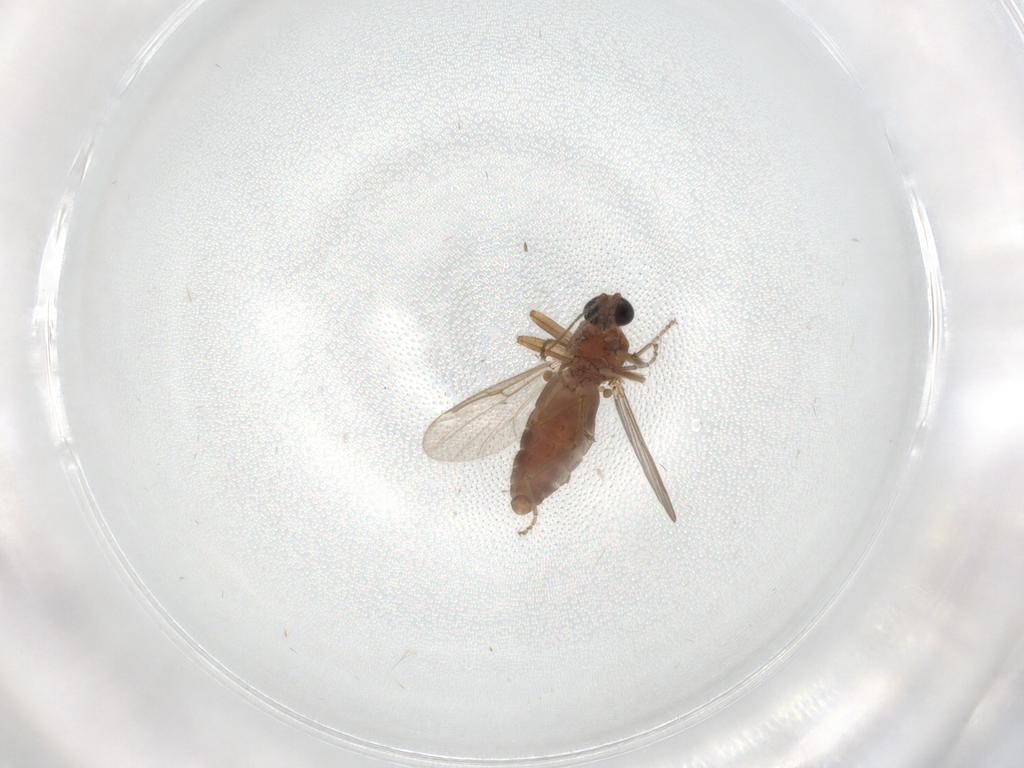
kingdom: Animalia
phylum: Arthropoda
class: Insecta
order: Diptera
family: Ceratopogonidae
